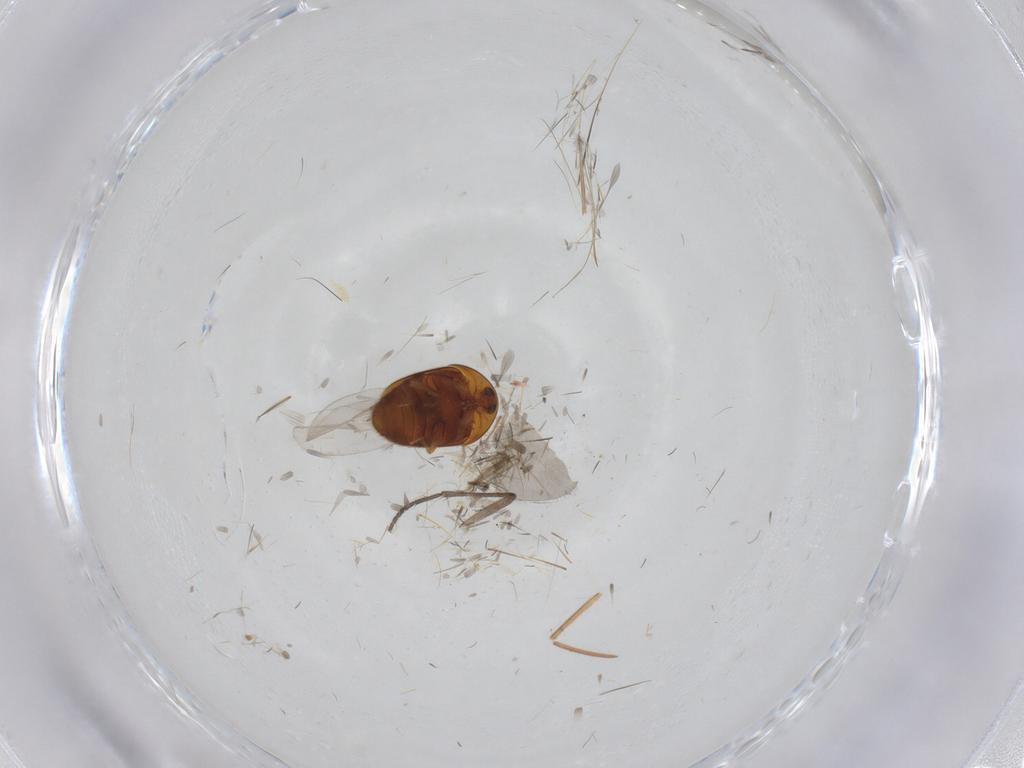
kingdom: Animalia
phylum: Arthropoda
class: Insecta
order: Coleoptera
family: Corylophidae
